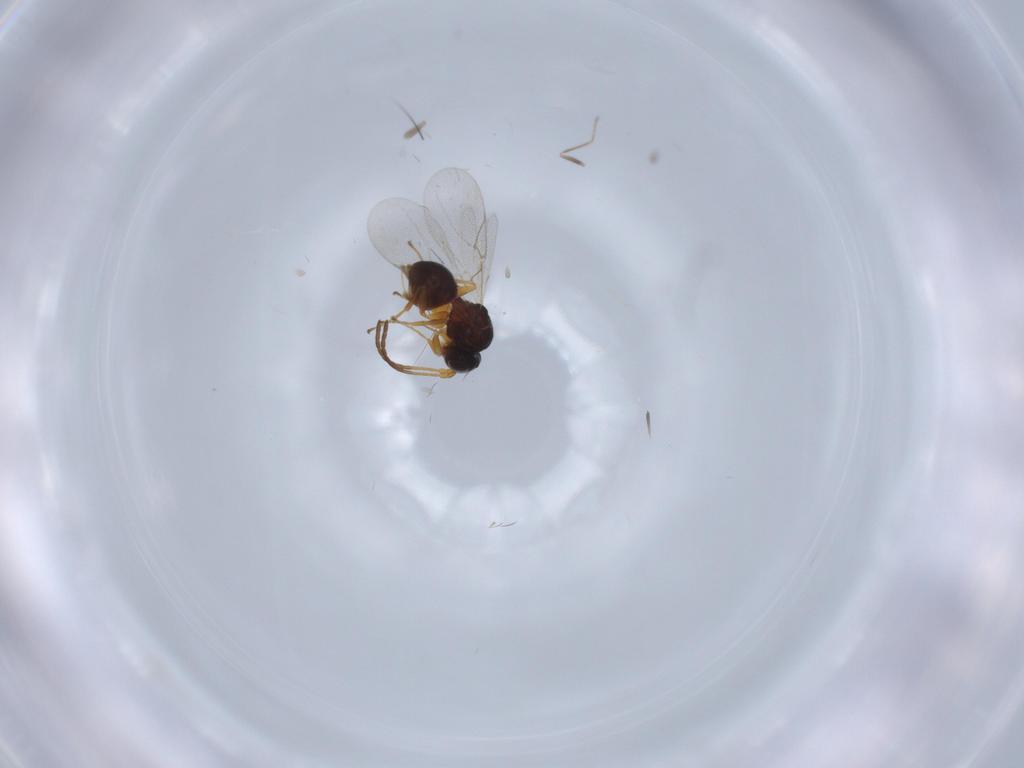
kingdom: Animalia
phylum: Arthropoda
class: Insecta
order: Hymenoptera
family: Figitidae
